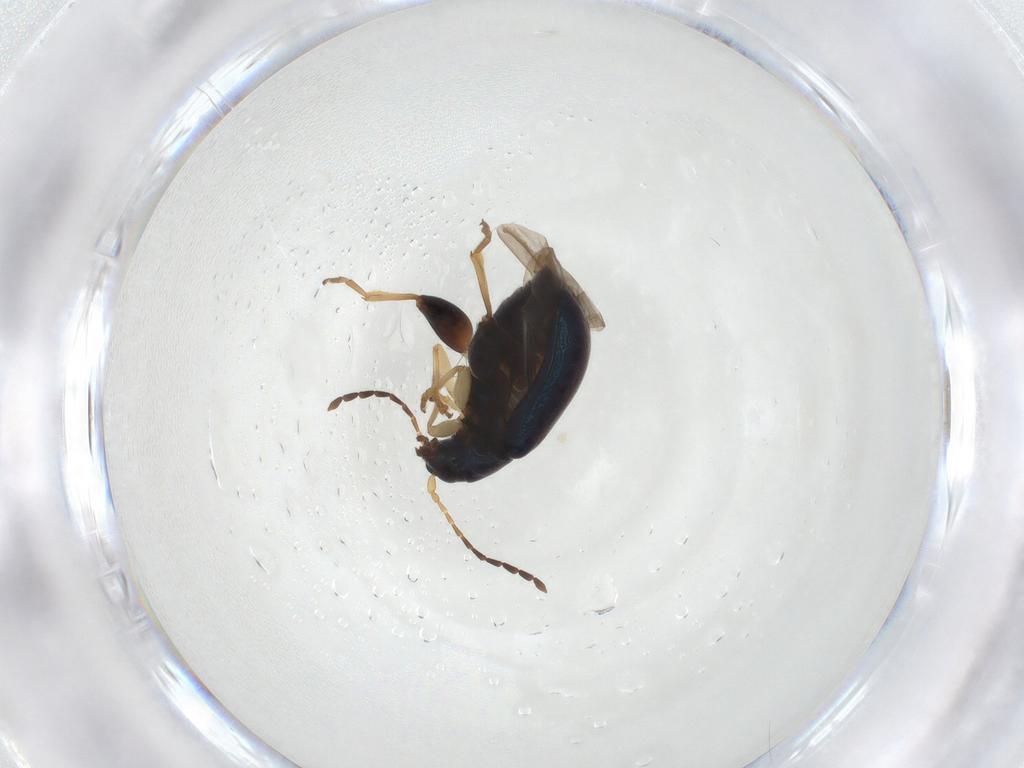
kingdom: Animalia
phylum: Arthropoda
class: Insecta
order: Coleoptera
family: Chrysomelidae
